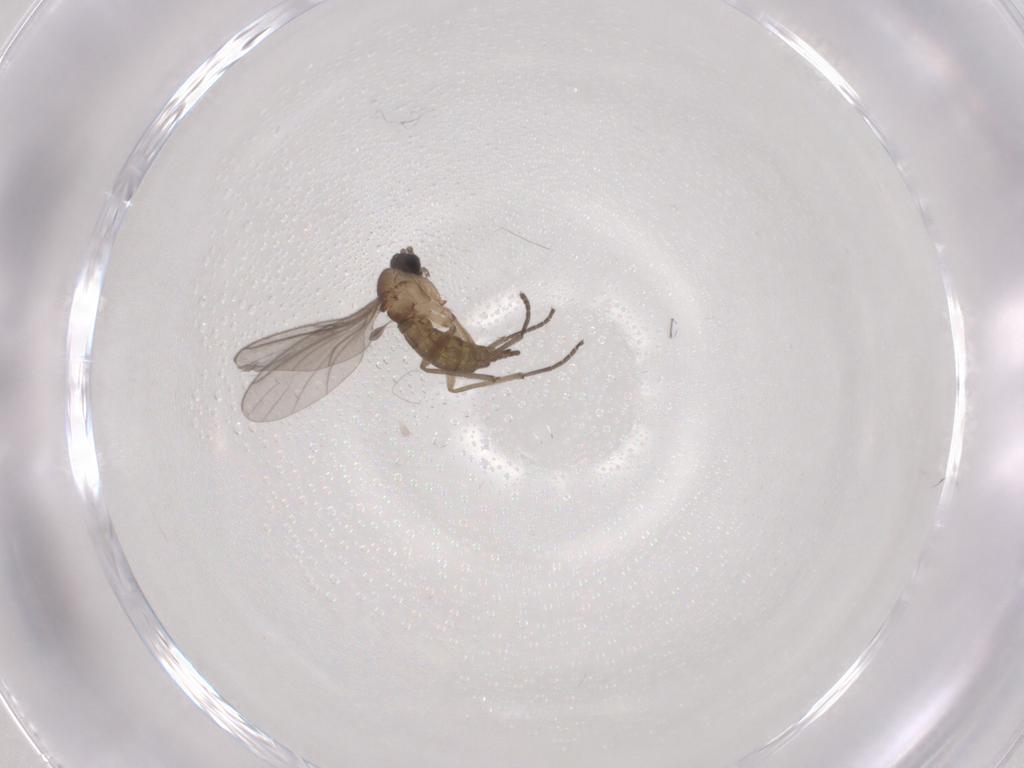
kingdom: Animalia
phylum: Arthropoda
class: Insecta
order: Diptera
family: Sciaridae
